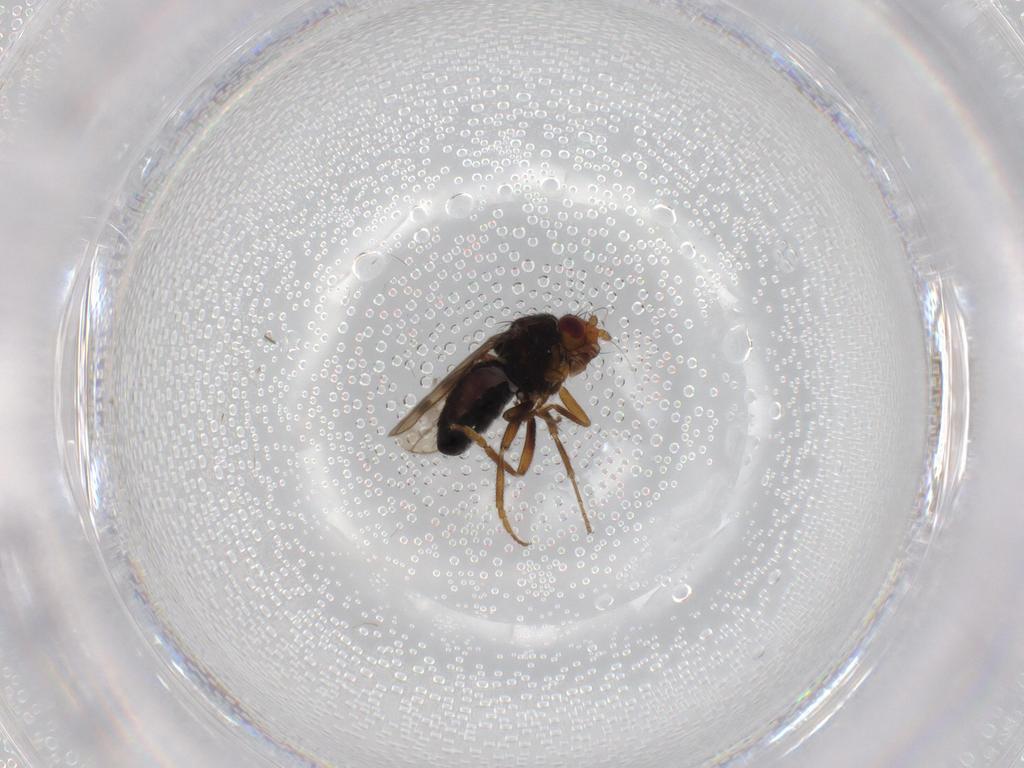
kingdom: Animalia
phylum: Arthropoda
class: Insecta
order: Diptera
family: Sphaeroceridae
